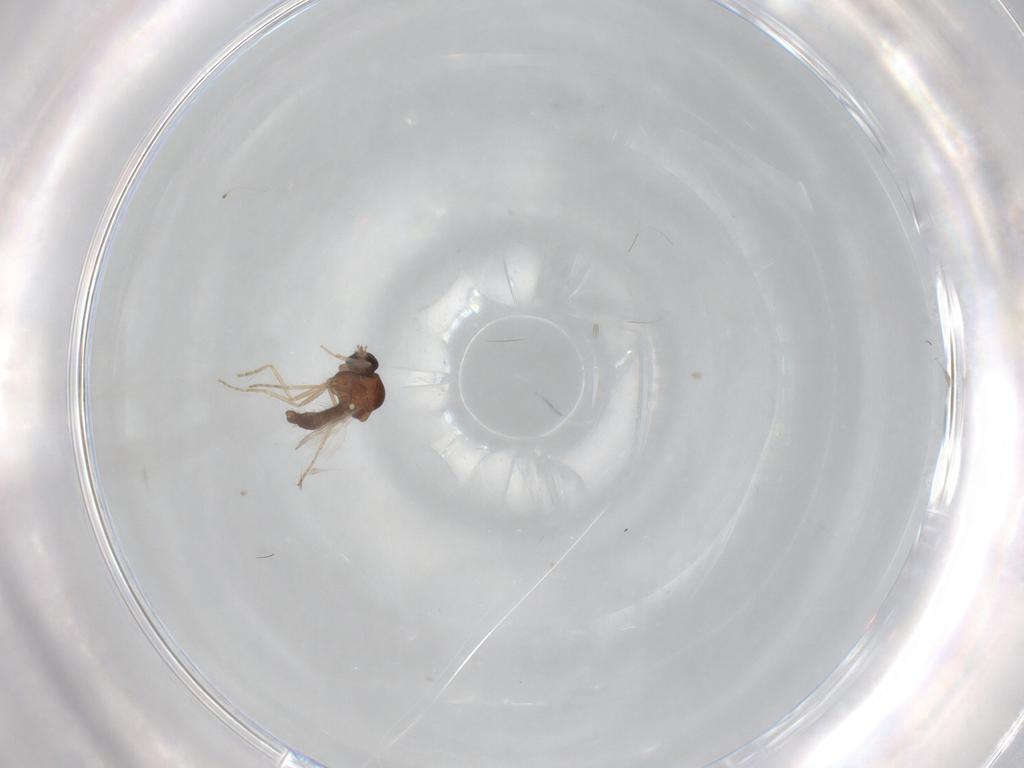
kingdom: Animalia
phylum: Arthropoda
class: Insecta
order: Diptera
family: Ceratopogonidae
